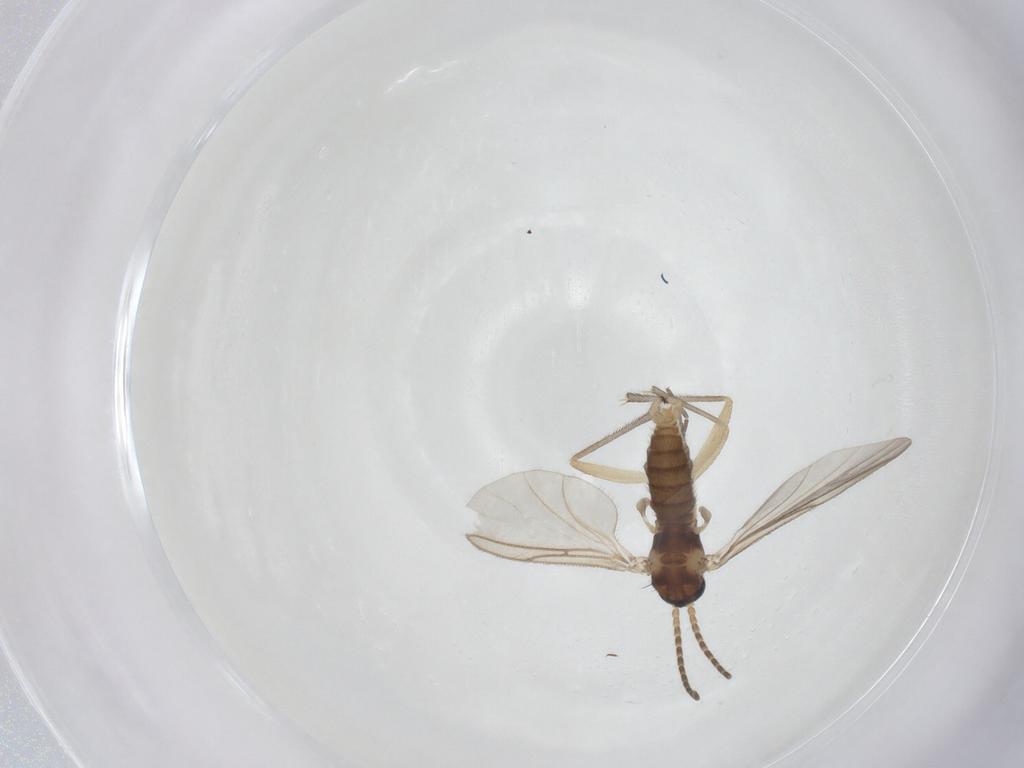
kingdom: Animalia
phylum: Arthropoda
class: Insecta
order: Diptera
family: Sciaridae
